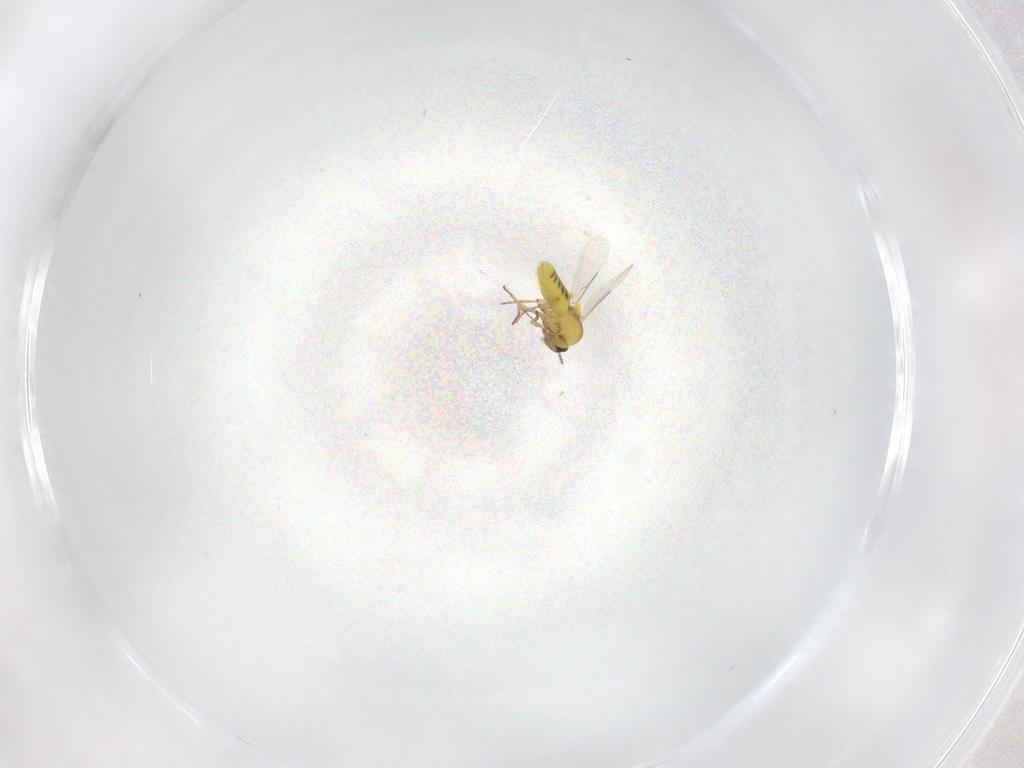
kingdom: Animalia
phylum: Arthropoda
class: Insecta
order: Diptera
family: Ceratopogonidae
